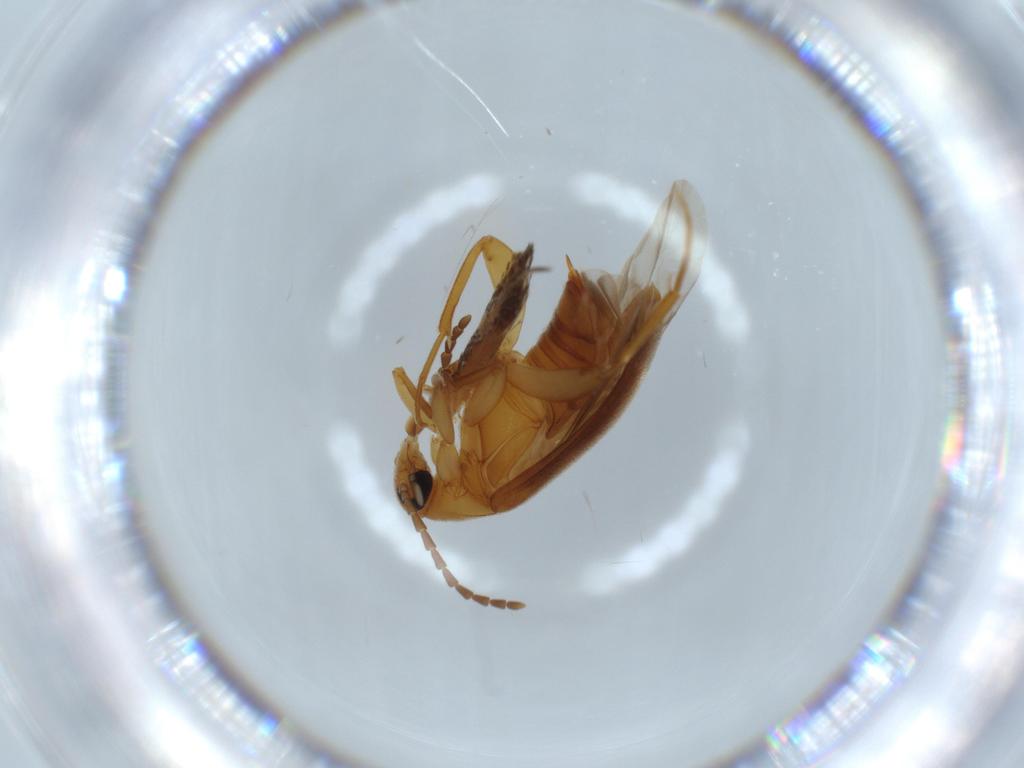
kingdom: Animalia
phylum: Arthropoda
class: Insecta
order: Coleoptera
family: Scraptiidae
